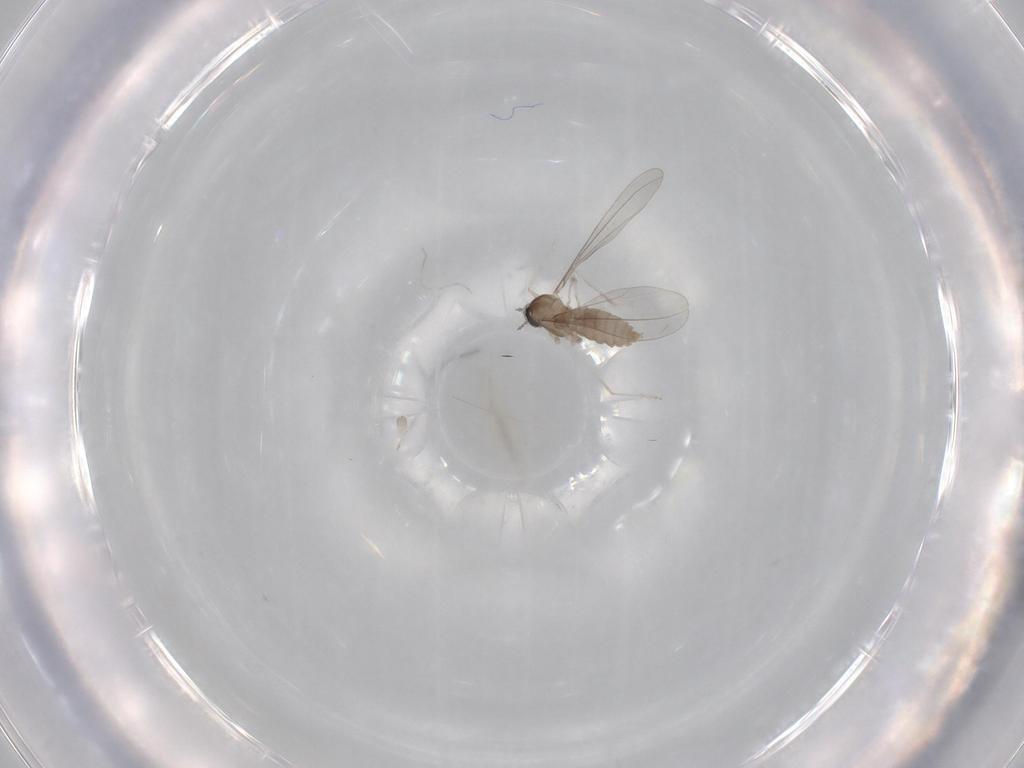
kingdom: Animalia
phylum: Arthropoda
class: Insecta
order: Diptera
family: Cecidomyiidae
